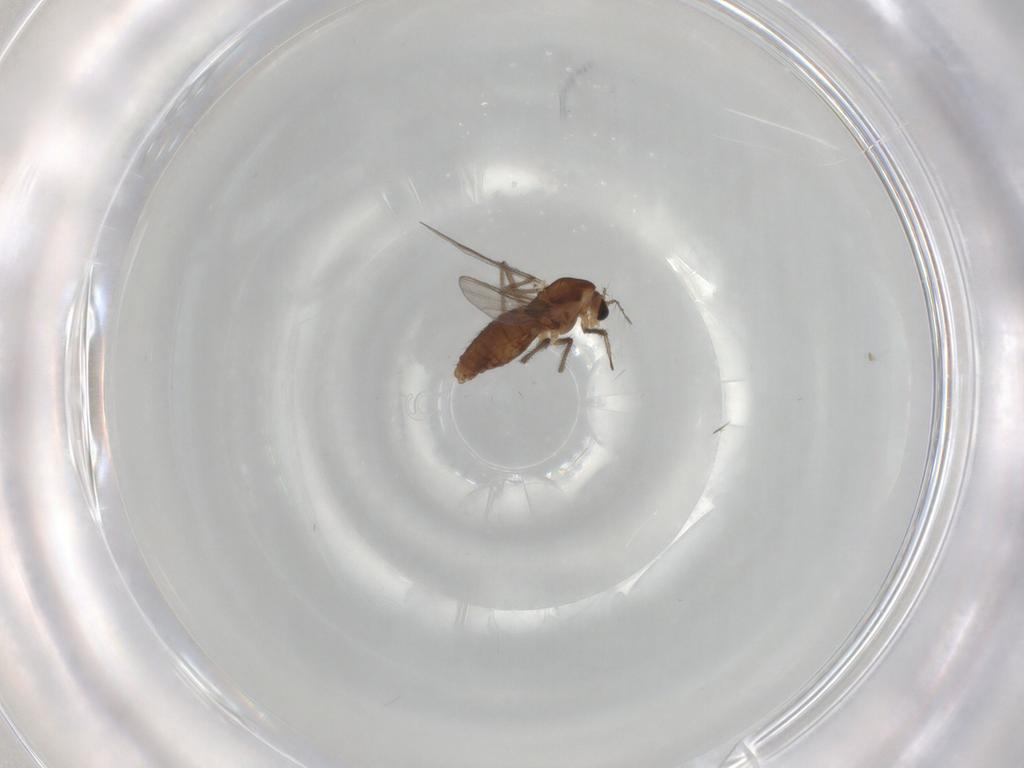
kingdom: Animalia
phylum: Arthropoda
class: Insecta
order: Diptera
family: Chironomidae
